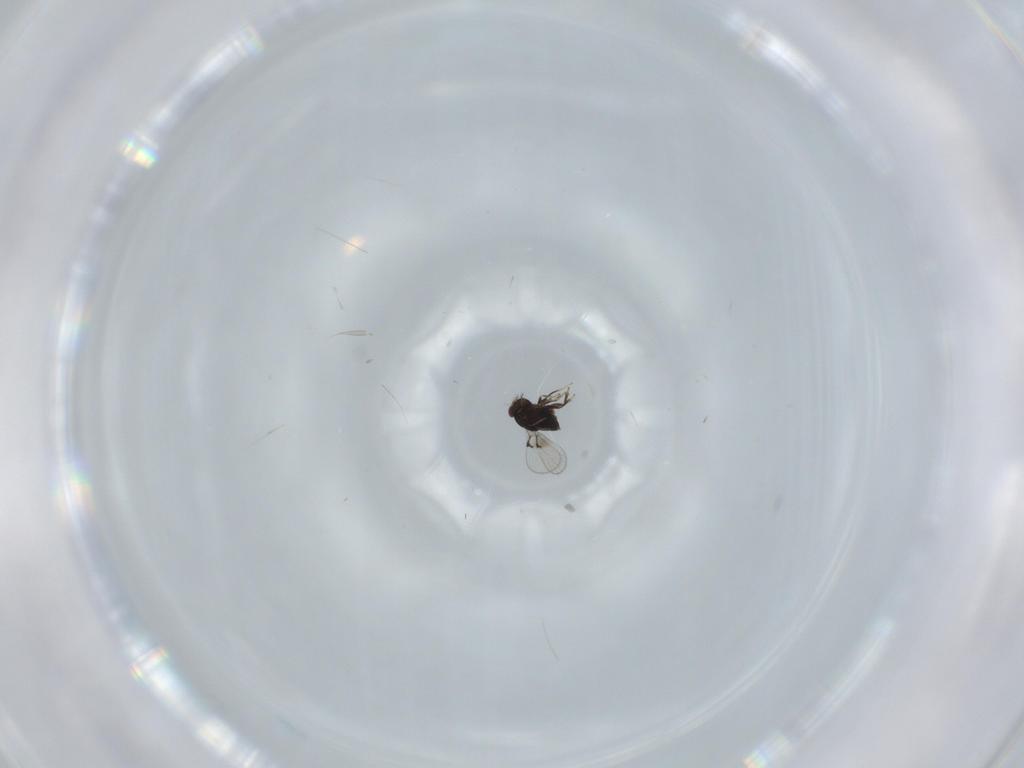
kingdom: Animalia
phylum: Arthropoda
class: Insecta
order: Hymenoptera
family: Trichogrammatidae
